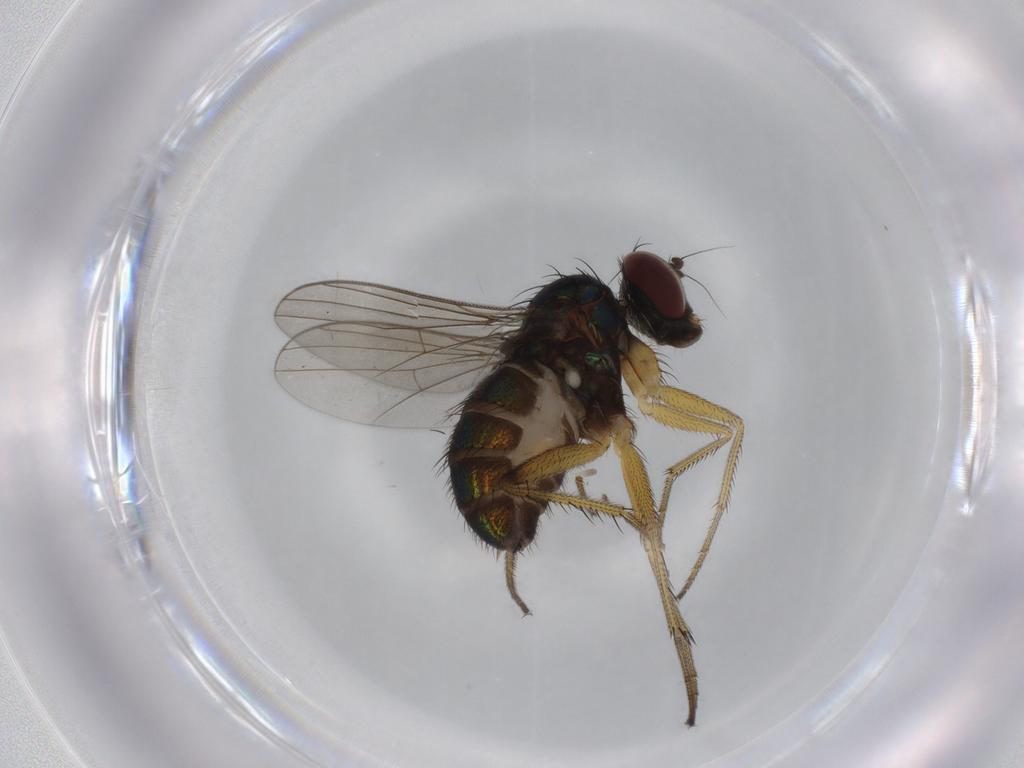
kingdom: Animalia
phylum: Arthropoda
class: Insecta
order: Diptera
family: Dolichopodidae
